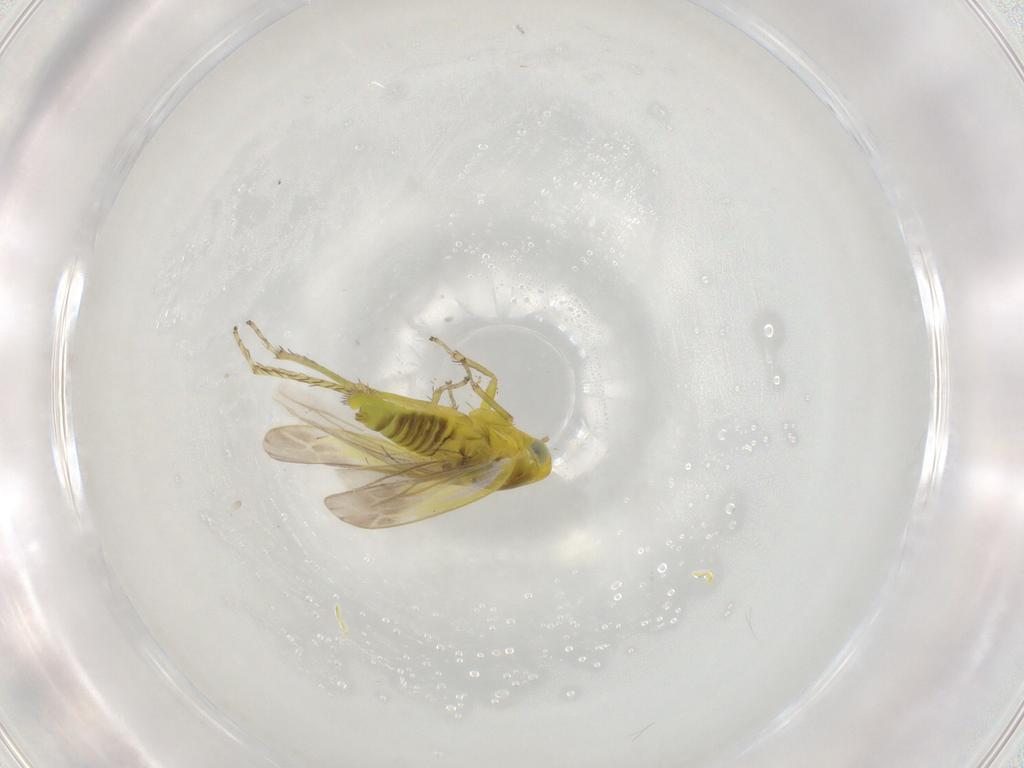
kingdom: Animalia
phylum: Arthropoda
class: Insecta
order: Hemiptera
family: Cicadellidae
